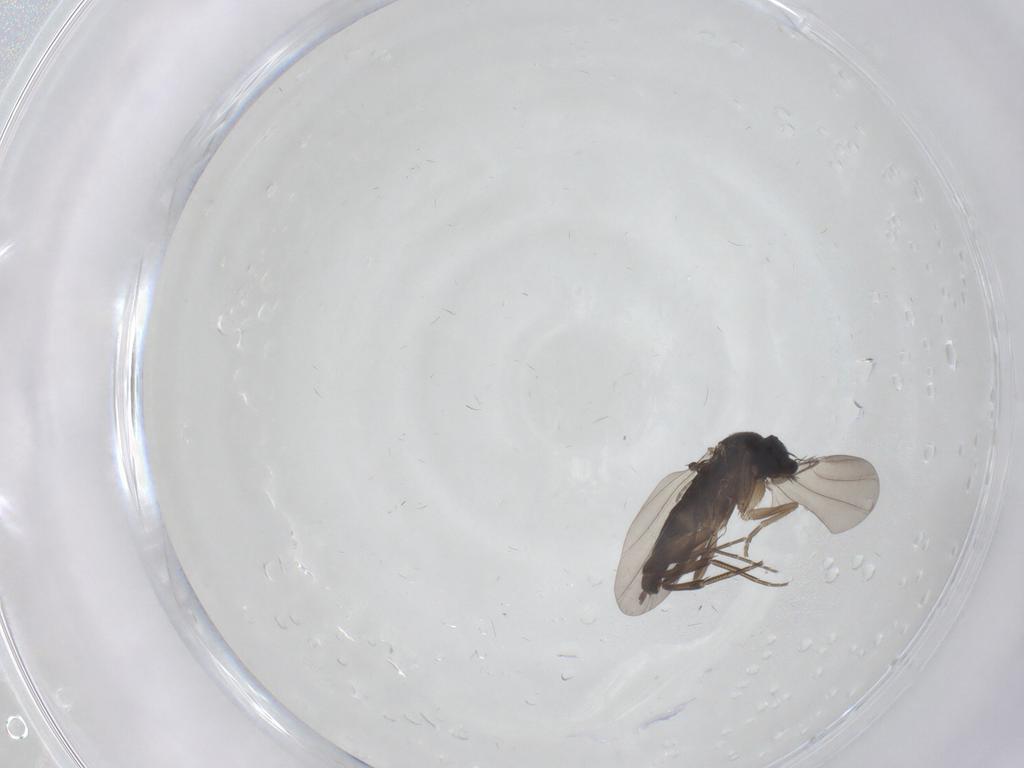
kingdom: Animalia
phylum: Arthropoda
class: Insecta
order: Diptera
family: Phoridae
